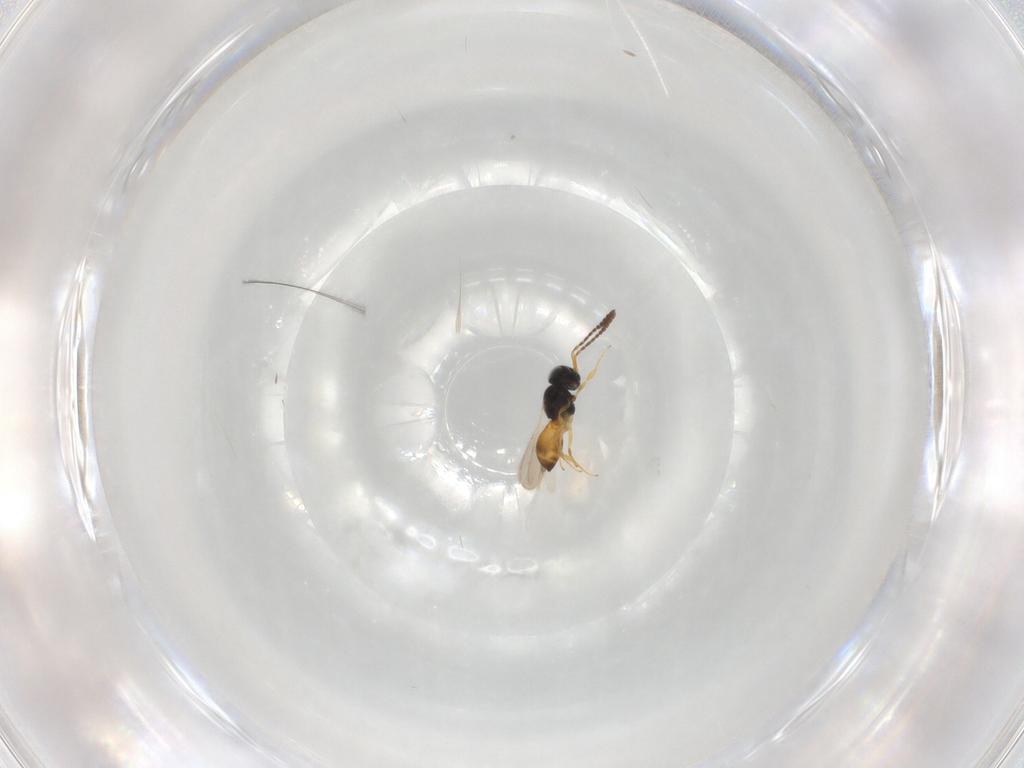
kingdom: Animalia
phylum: Arthropoda
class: Insecta
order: Hymenoptera
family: Scelionidae
